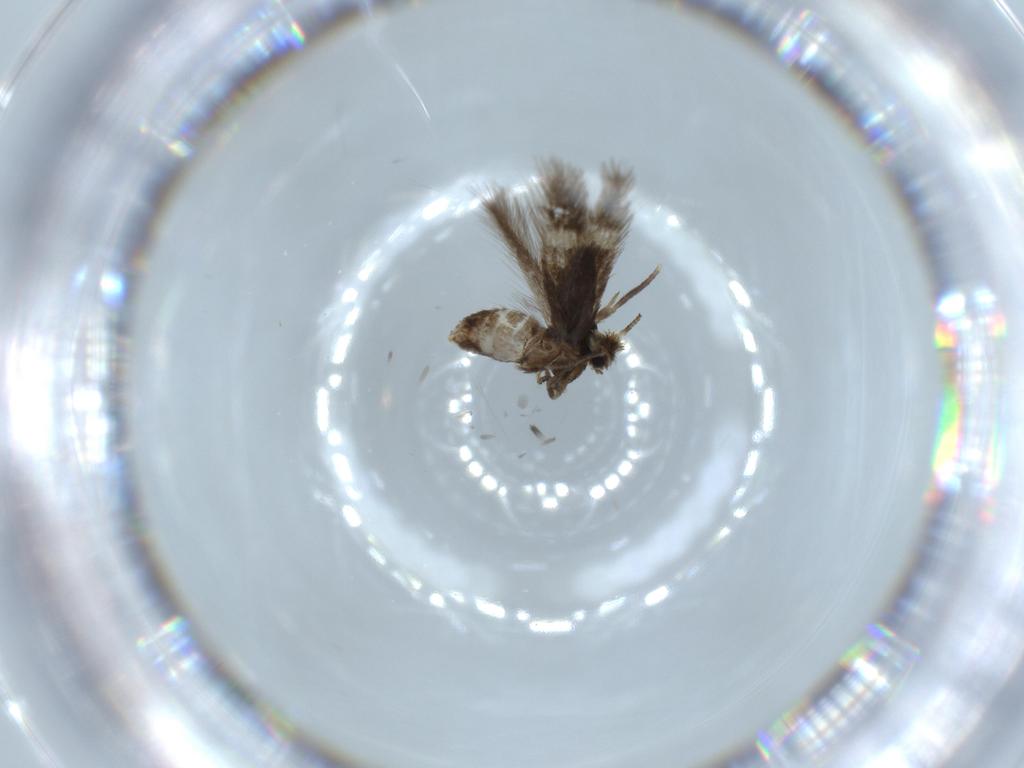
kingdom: Animalia
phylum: Arthropoda
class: Insecta
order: Lepidoptera
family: Nepticulidae
